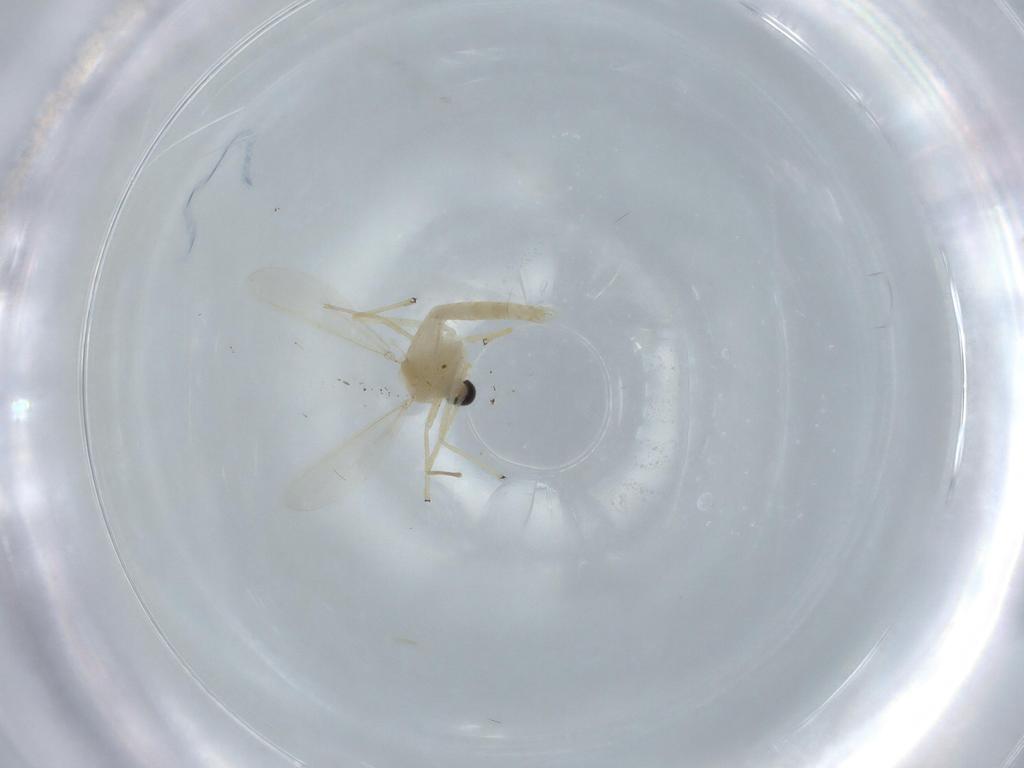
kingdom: Animalia
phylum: Arthropoda
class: Insecta
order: Diptera
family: Chironomidae
